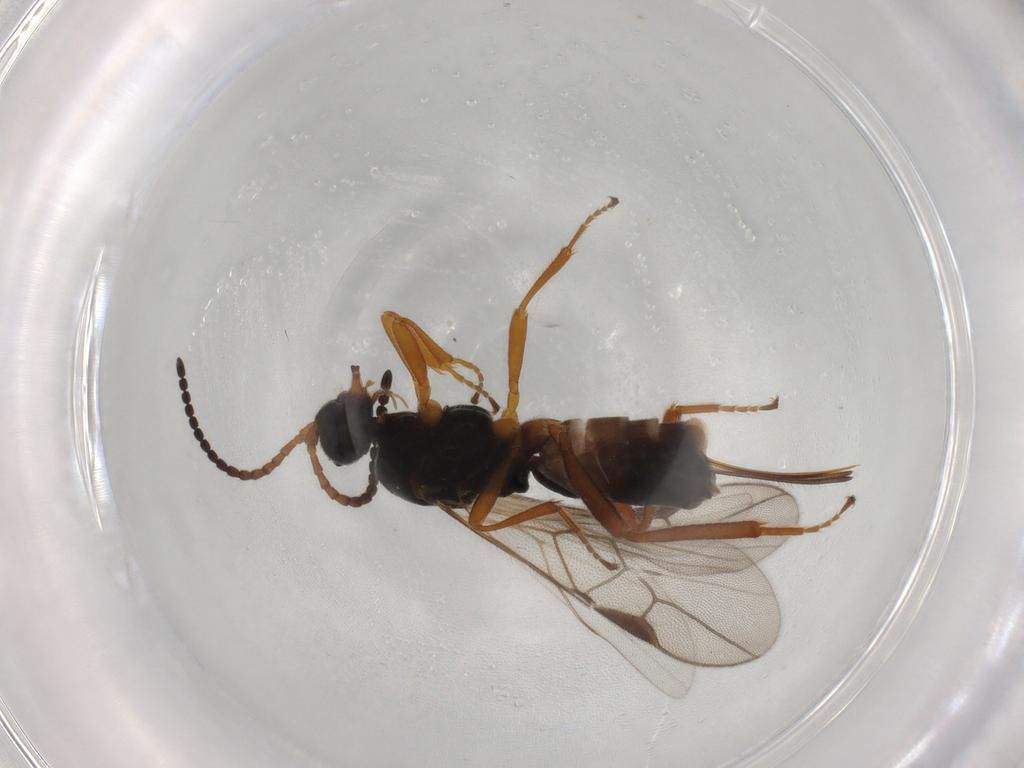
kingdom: Animalia
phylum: Arthropoda
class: Insecta
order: Hymenoptera
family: Braconidae
